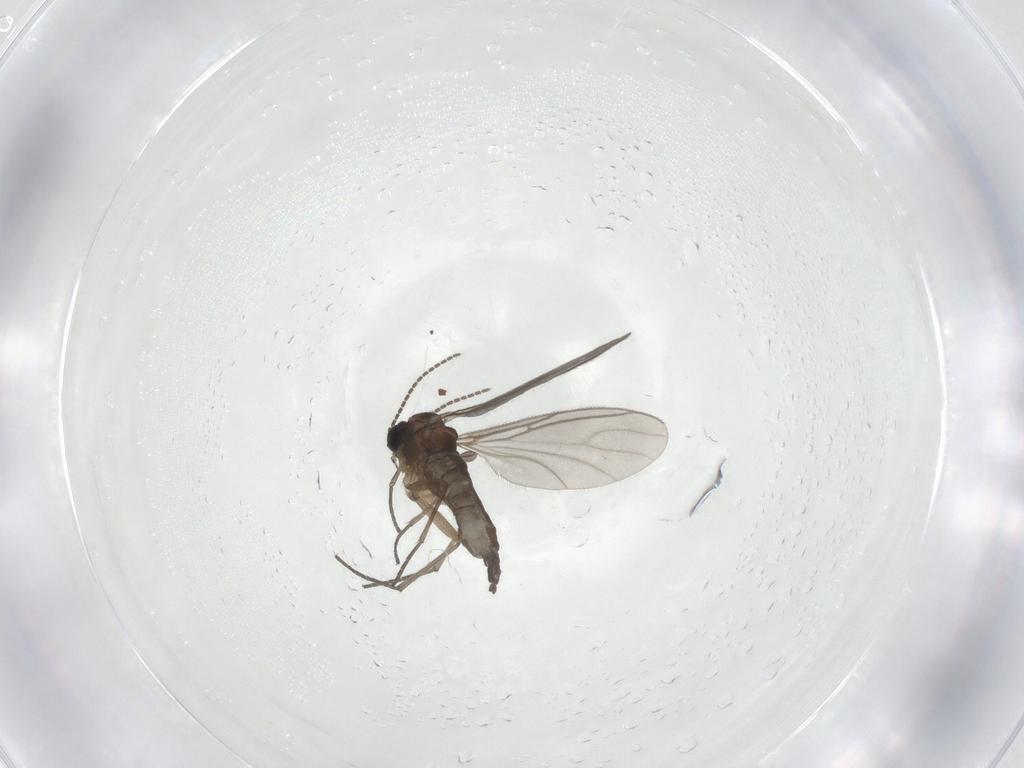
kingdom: Animalia
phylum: Arthropoda
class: Insecta
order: Diptera
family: Sciaridae
